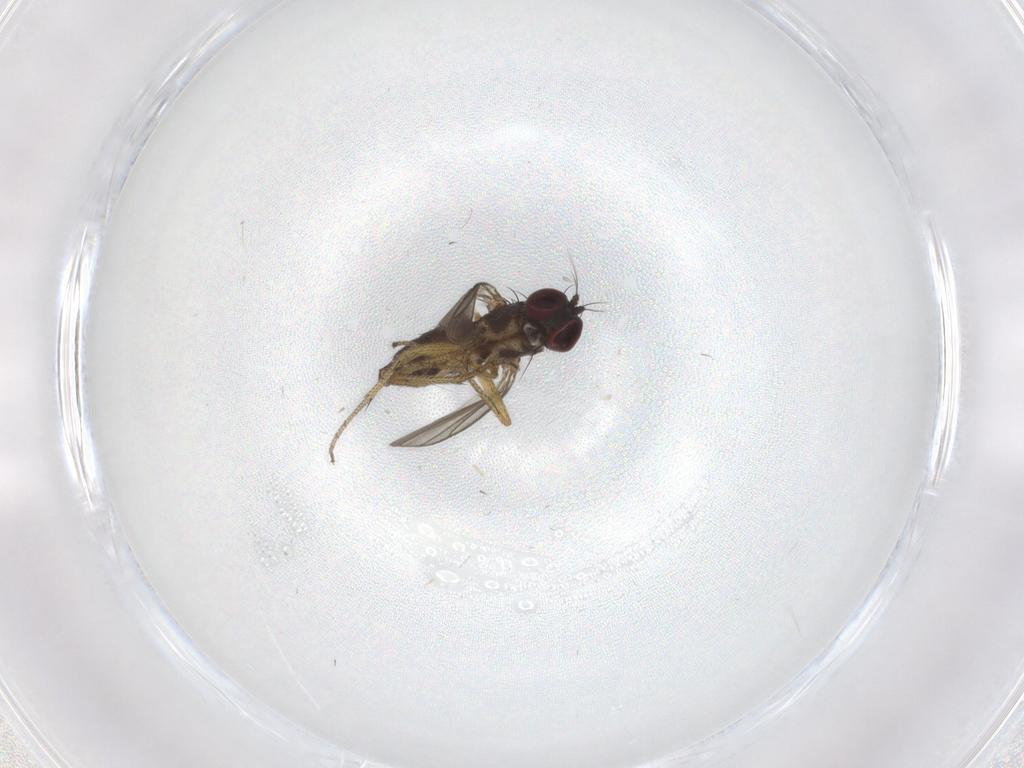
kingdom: Animalia
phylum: Arthropoda
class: Insecta
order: Diptera
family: Dolichopodidae
